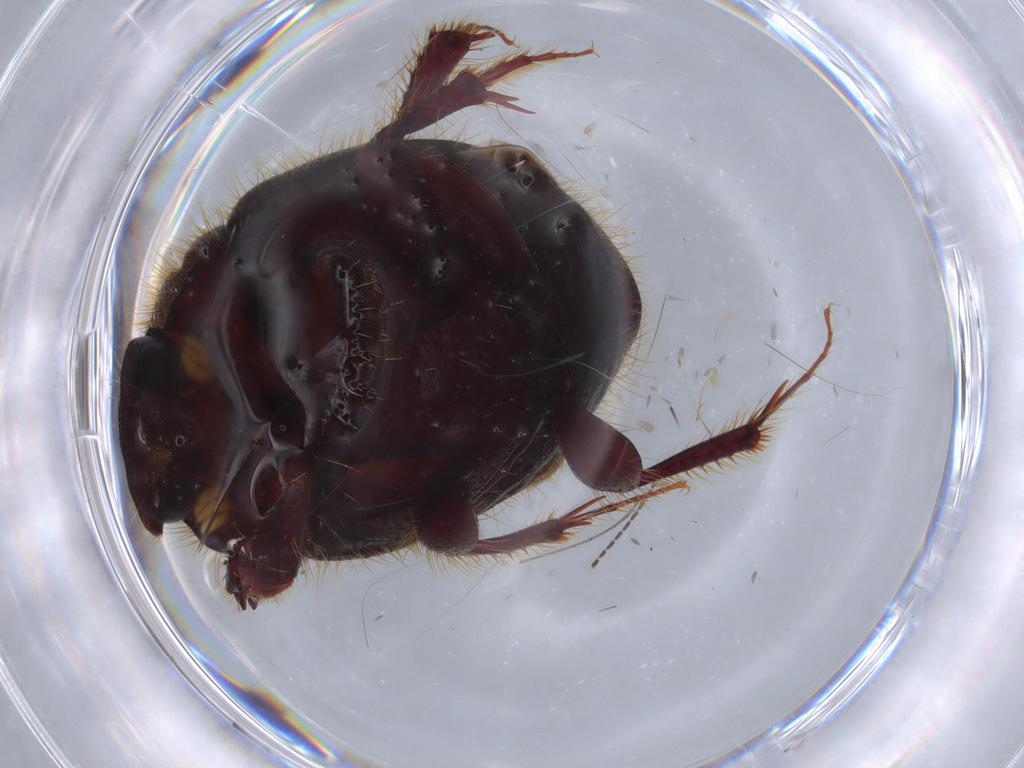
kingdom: Animalia
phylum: Arthropoda
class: Insecta
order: Coleoptera
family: Scarabaeidae
